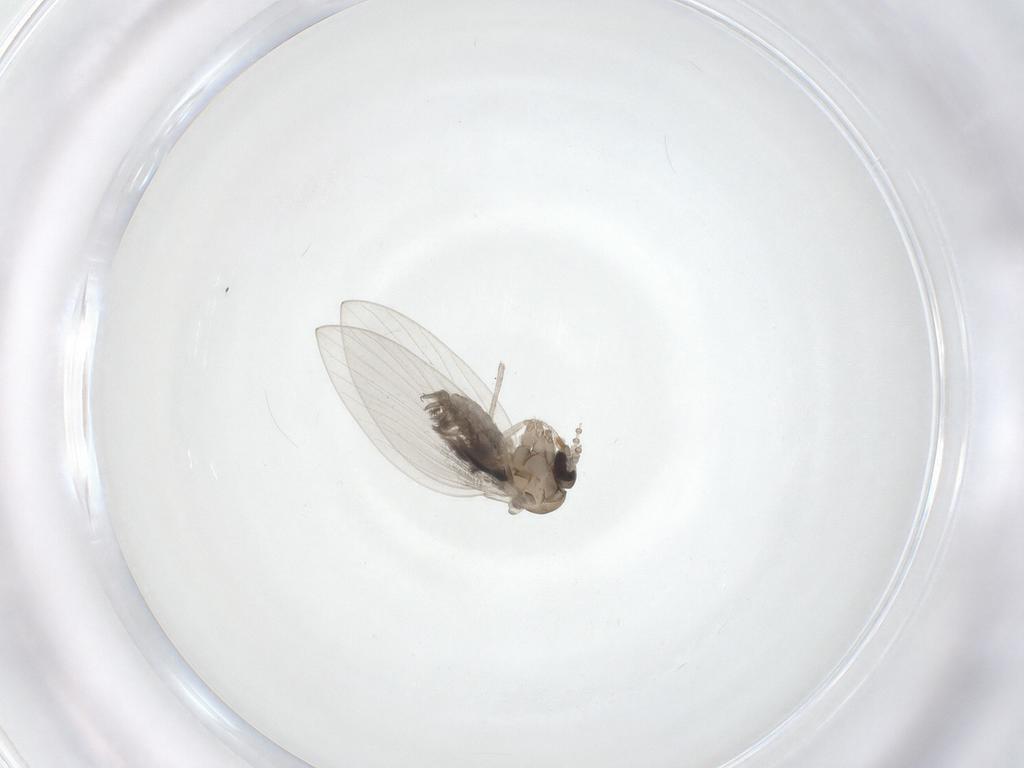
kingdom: Animalia
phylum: Arthropoda
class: Insecta
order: Diptera
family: Psychodidae
